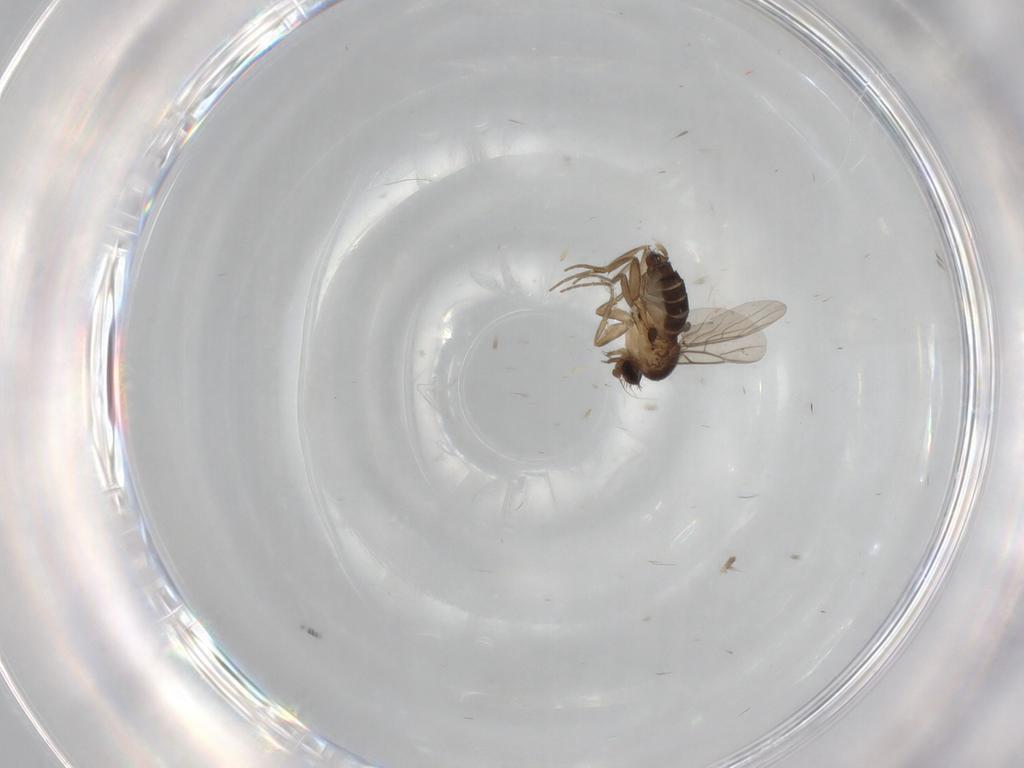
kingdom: Animalia
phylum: Arthropoda
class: Insecta
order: Diptera
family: Phoridae
